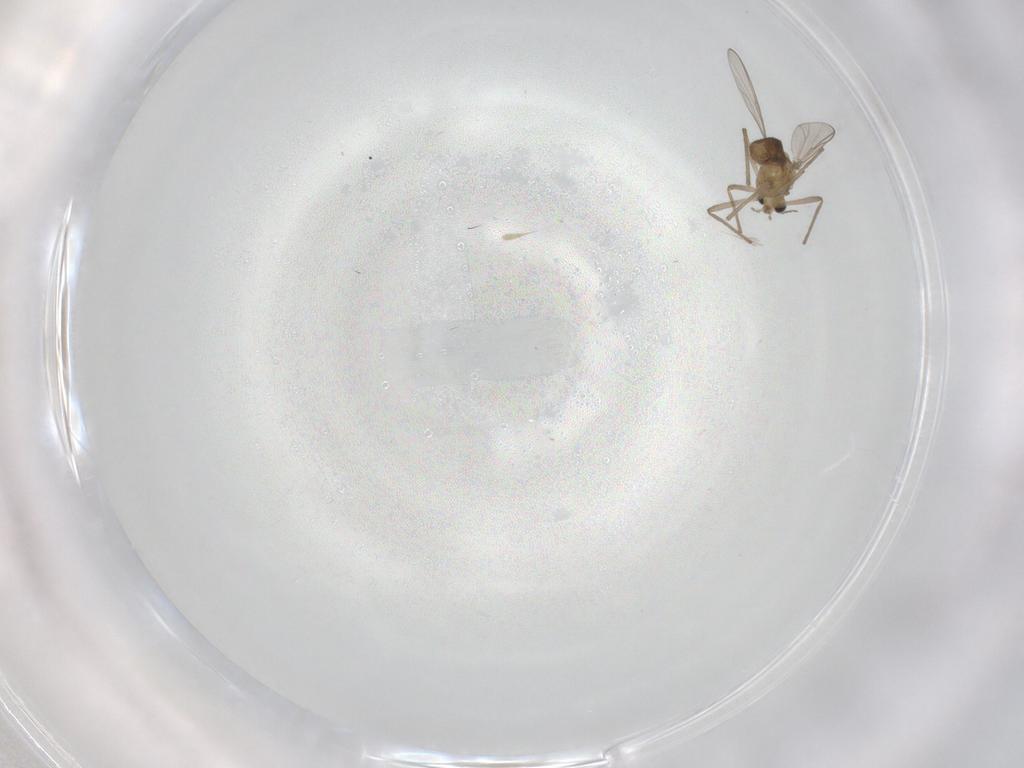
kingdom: Animalia
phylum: Arthropoda
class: Insecta
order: Diptera
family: Chironomidae
